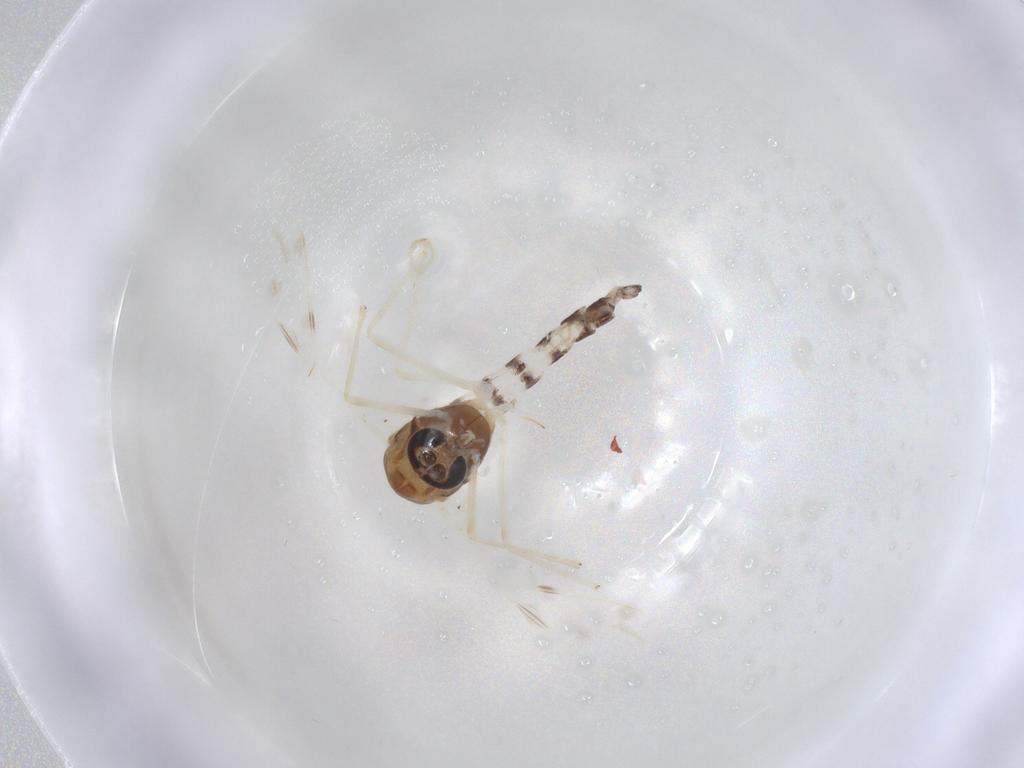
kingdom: Animalia
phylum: Arthropoda
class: Insecta
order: Diptera
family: Chironomidae
